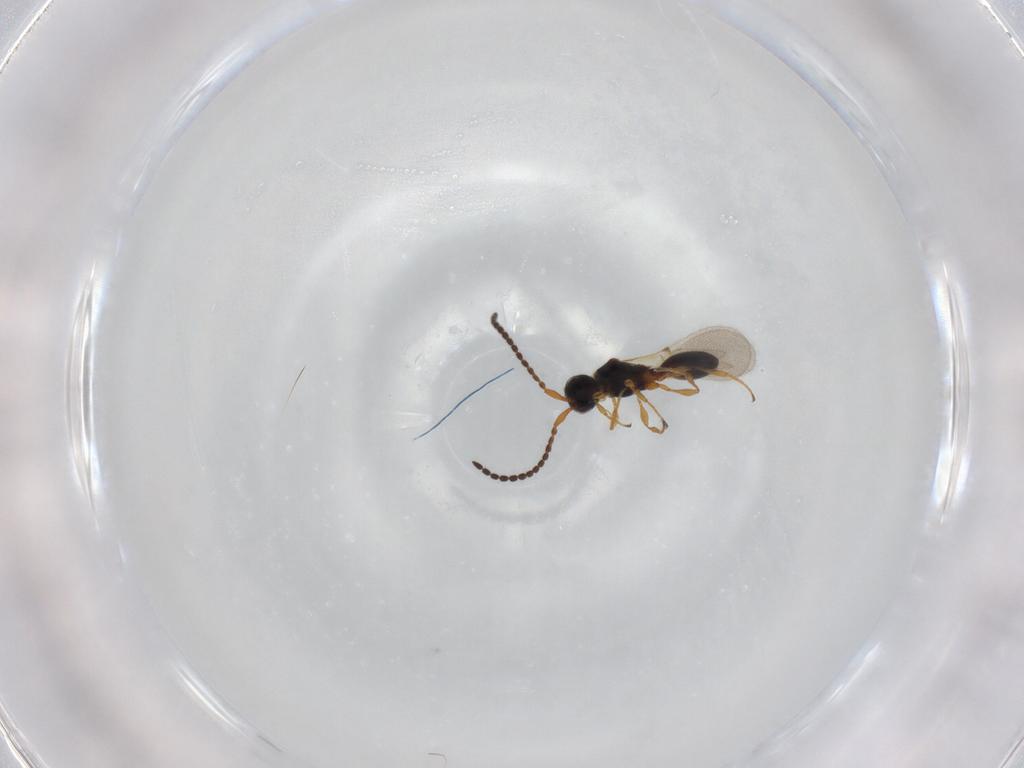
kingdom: Animalia
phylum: Arthropoda
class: Insecta
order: Hymenoptera
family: Diapriidae
